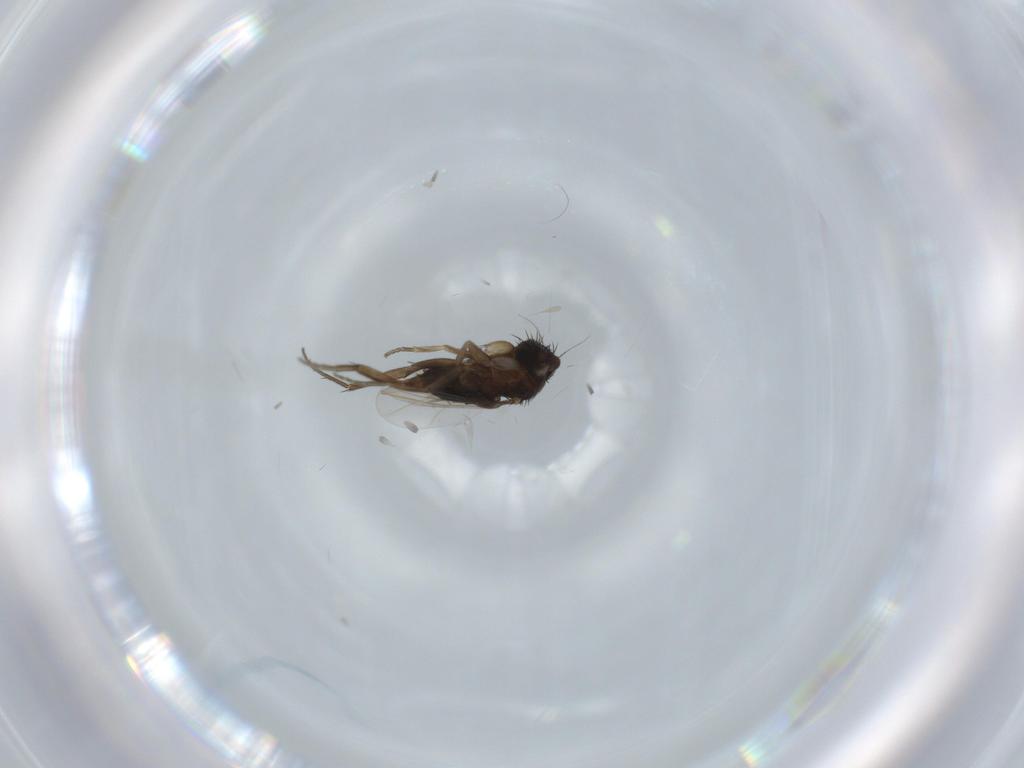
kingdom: Animalia
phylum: Arthropoda
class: Insecta
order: Diptera
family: Phoridae
